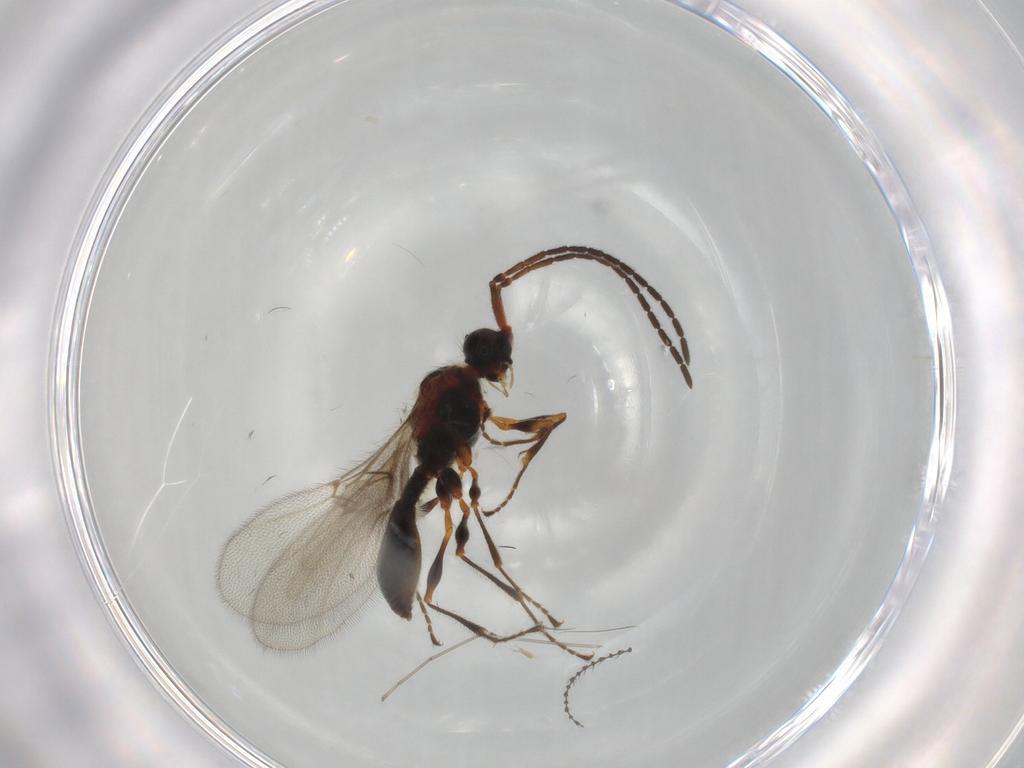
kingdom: Animalia
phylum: Arthropoda
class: Insecta
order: Hymenoptera
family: Diapriidae
